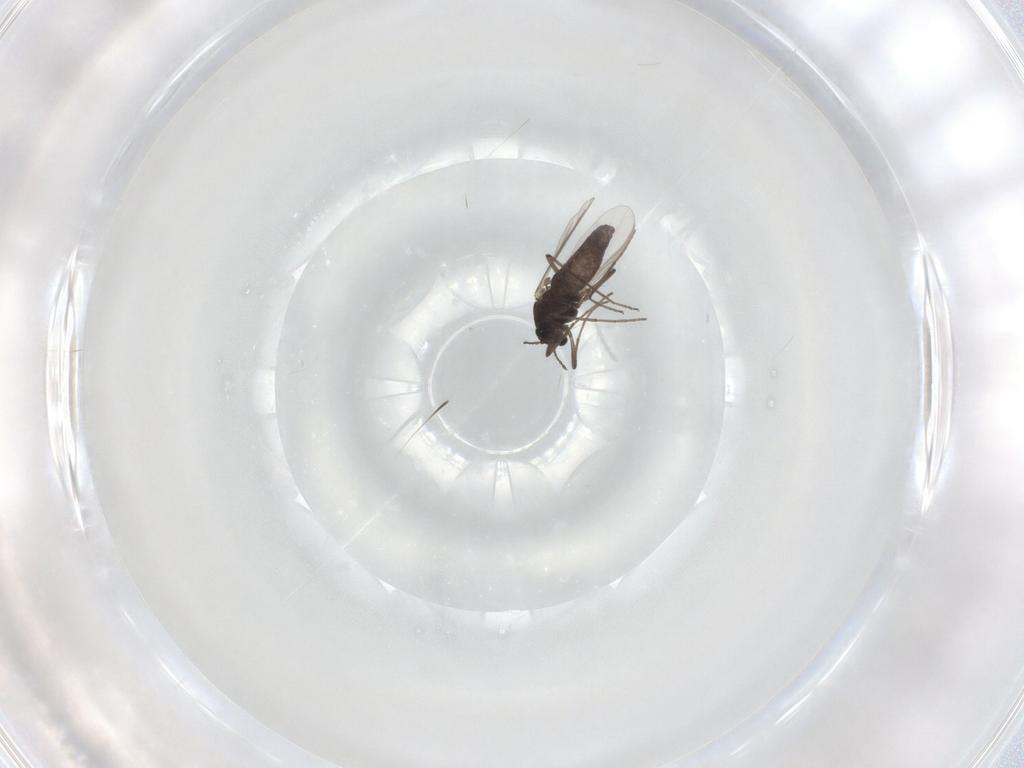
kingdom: Animalia
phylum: Arthropoda
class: Insecta
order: Diptera
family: Chironomidae
